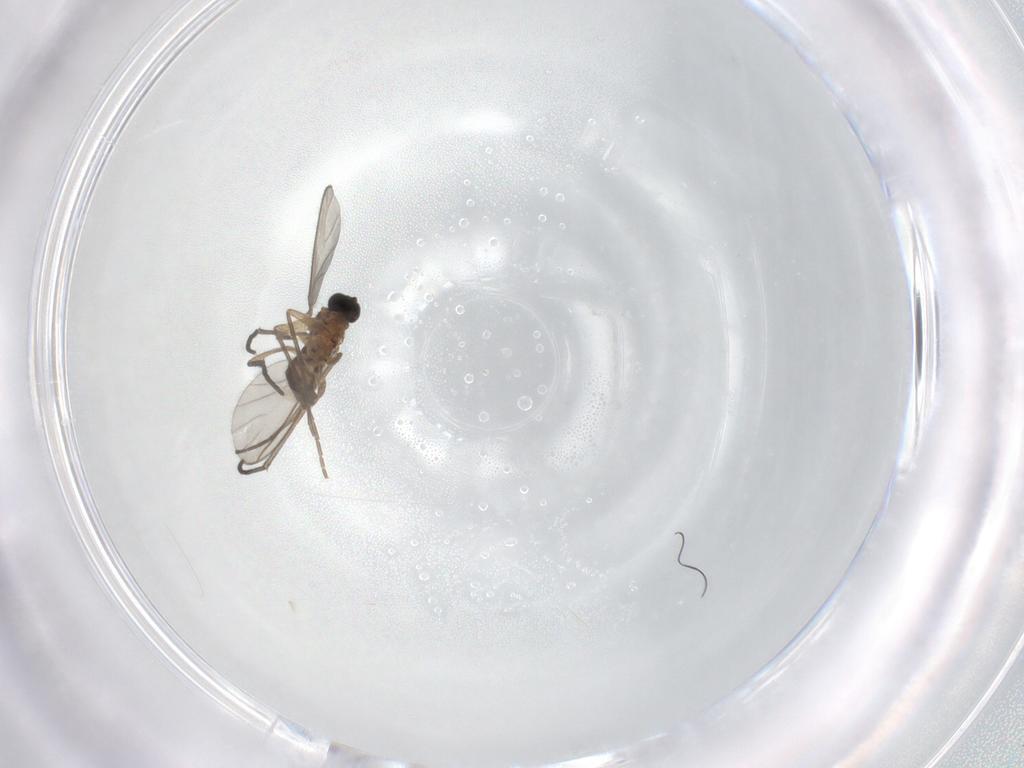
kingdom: Animalia
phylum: Arthropoda
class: Insecta
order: Diptera
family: Sciaridae
